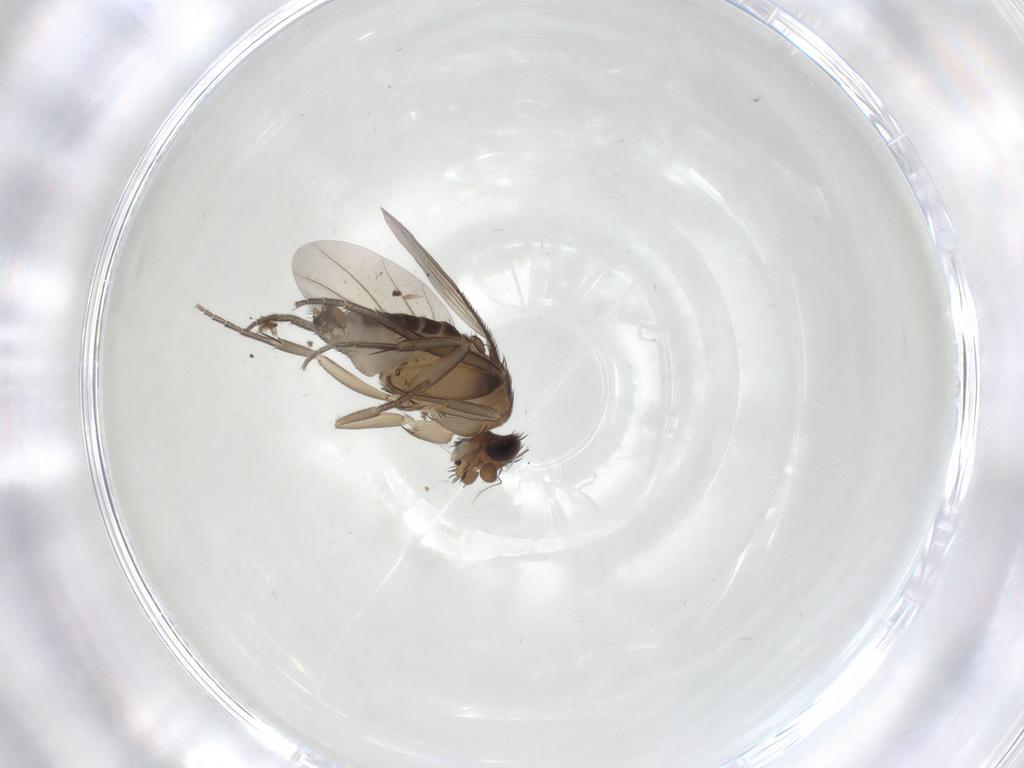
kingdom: Animalia
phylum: Arthropoda
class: Insecta
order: Diptera
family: Phoridae
